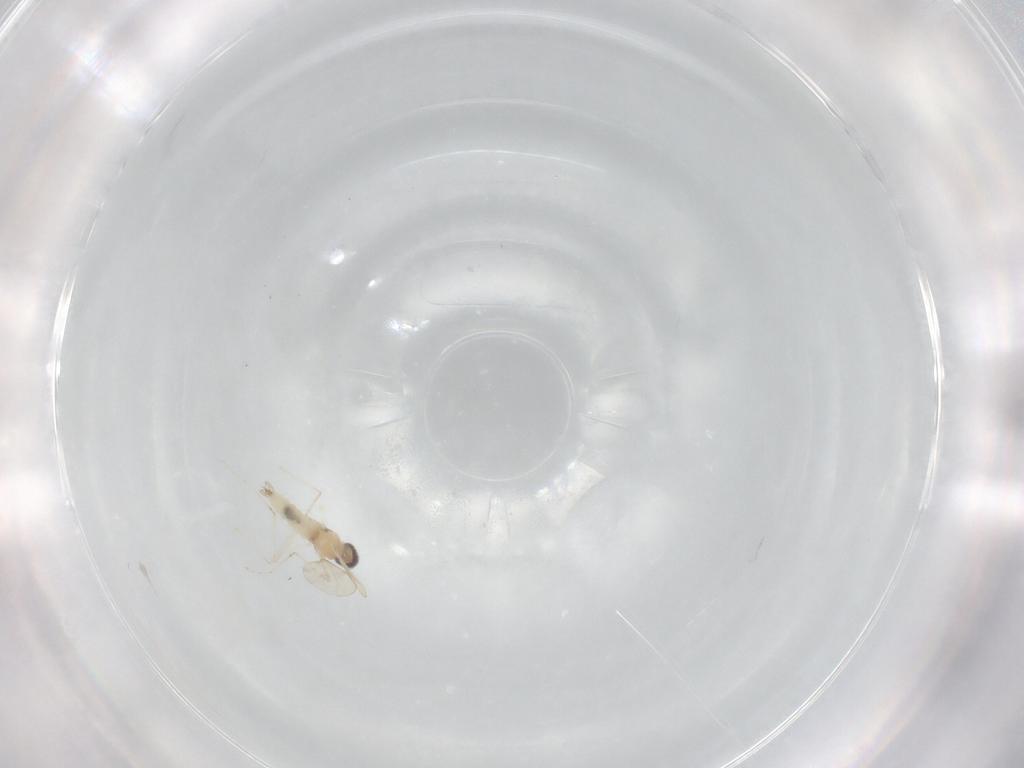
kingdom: Animalia
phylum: Arthropoda
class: Insecta
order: Diptera
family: Cecidomyiidae
